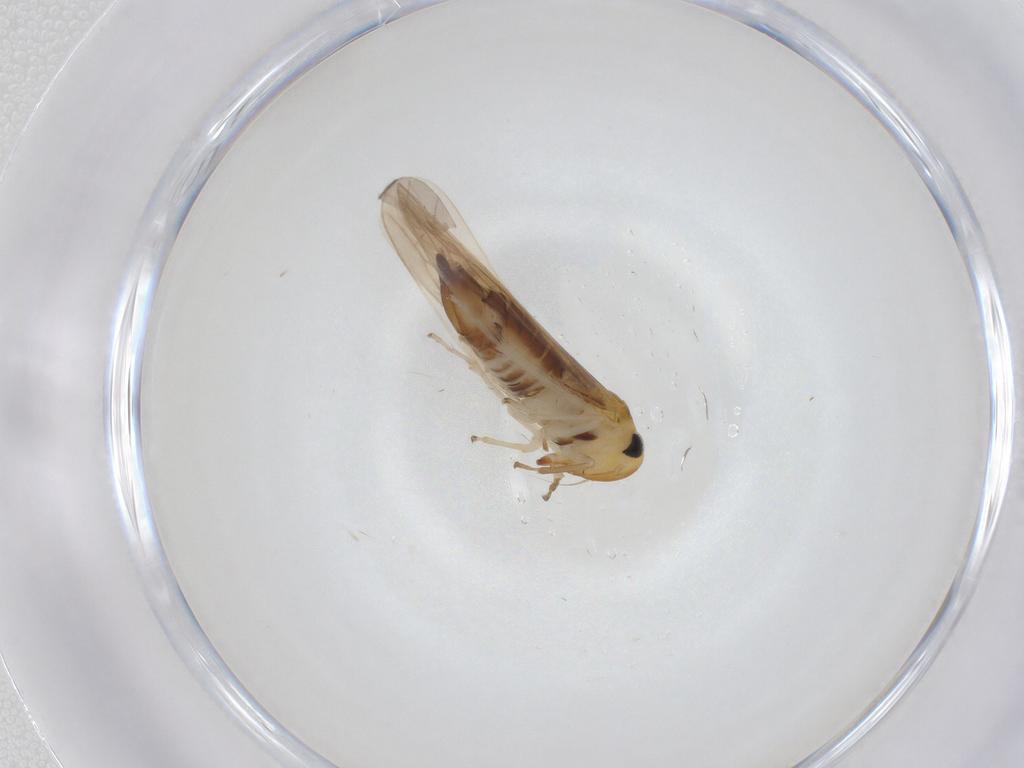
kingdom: Animalia
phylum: Arthropoda
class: Insecta
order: Hemiptera
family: Cicadellidae
